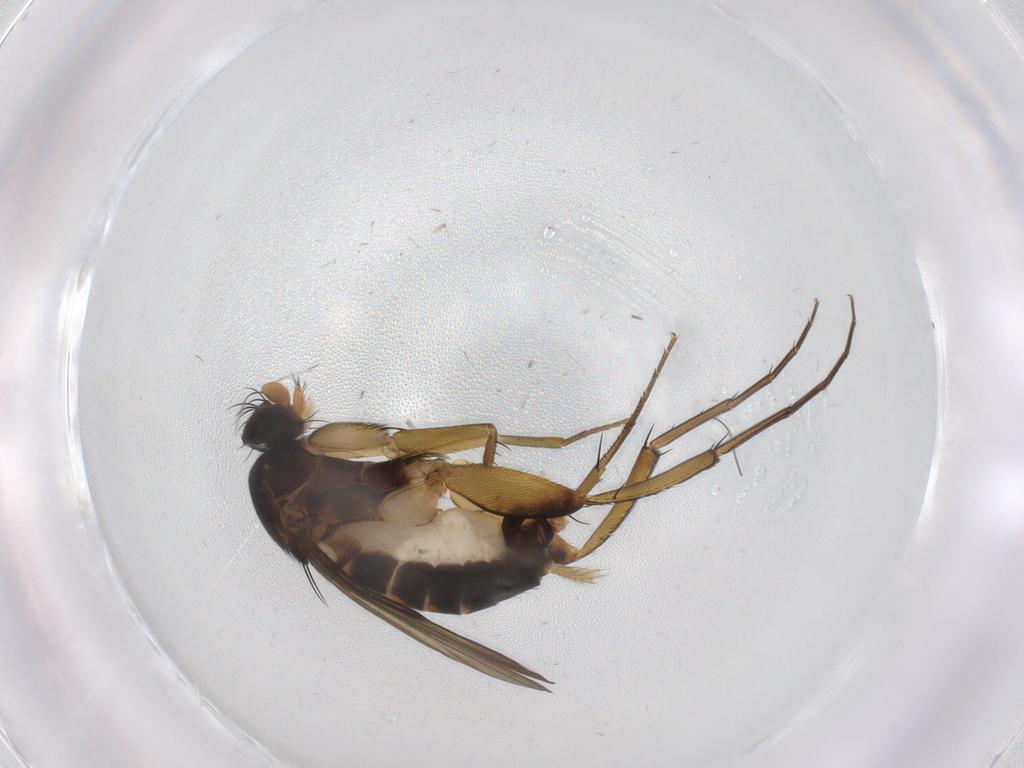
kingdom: Animalia
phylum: Arthropoda
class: Insecta
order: Diptera
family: Phoridae
